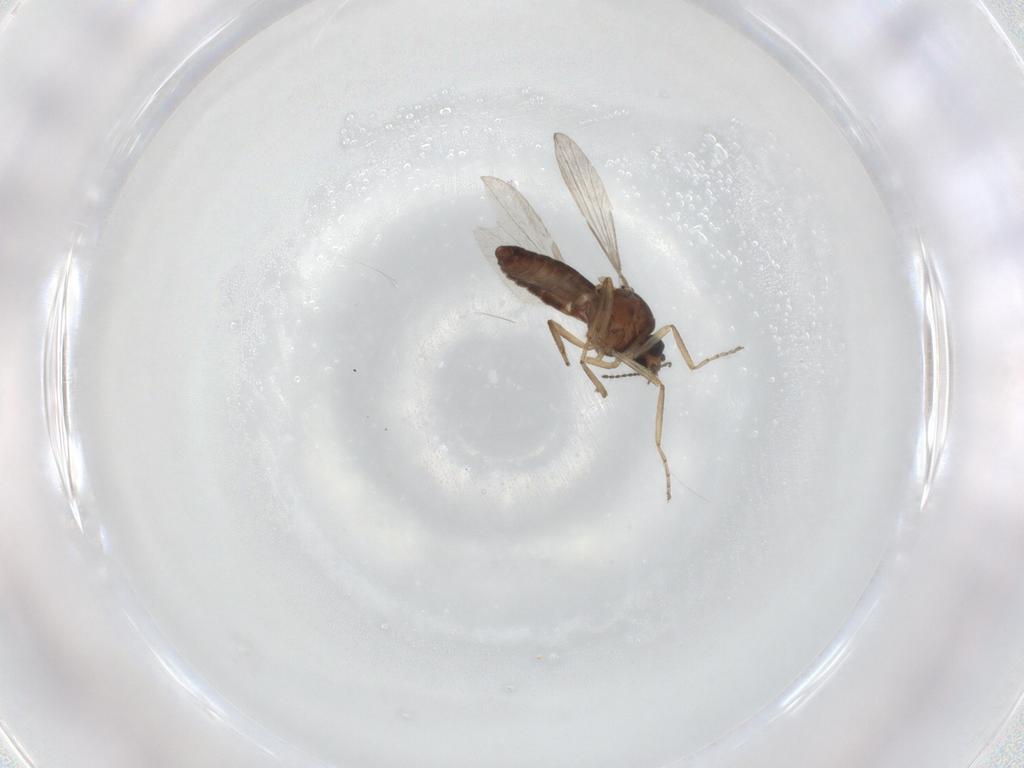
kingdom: Animalia
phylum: Arthropoda
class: Insecta
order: Diptera
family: Ceratopogonidae
